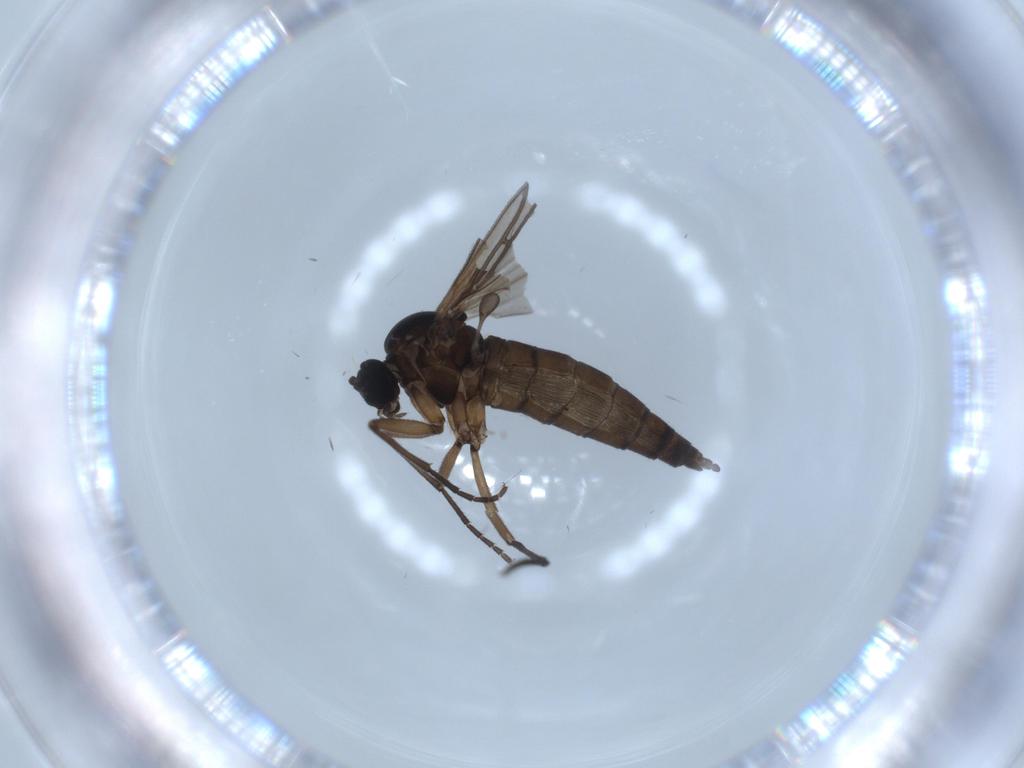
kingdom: Animalia
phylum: Arthropoda
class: Insecta
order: Diptera
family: Sciaridae
